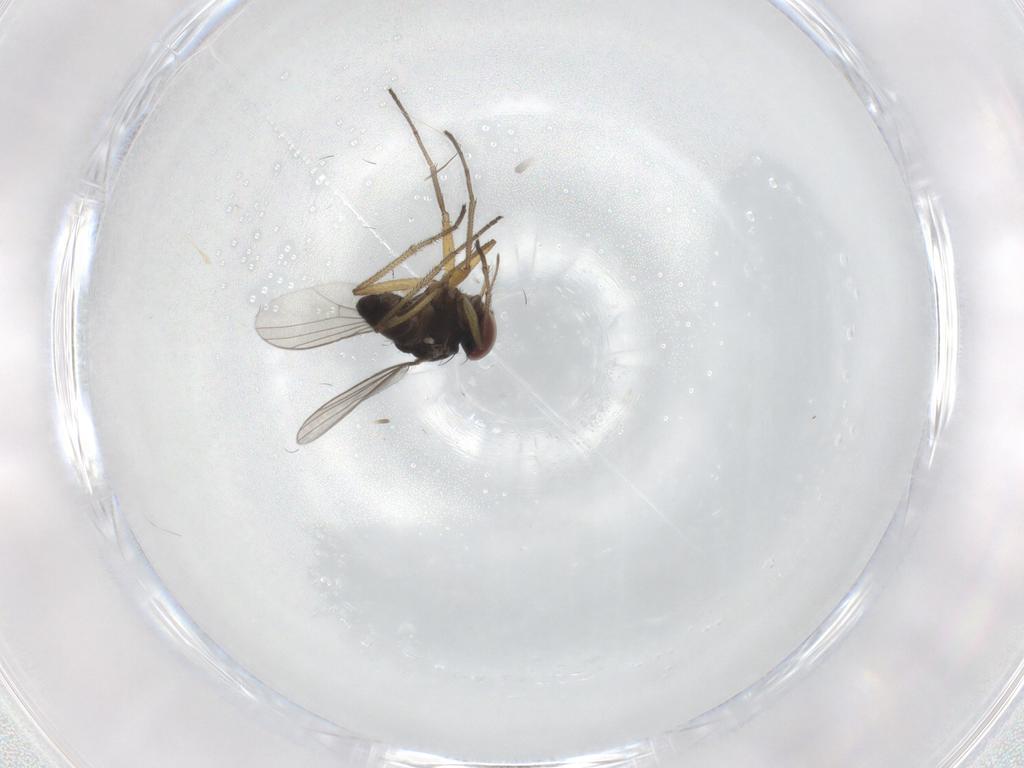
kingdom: Animalia
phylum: Arthropoda
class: Insecta
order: Diptera
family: Dolichopodidae
